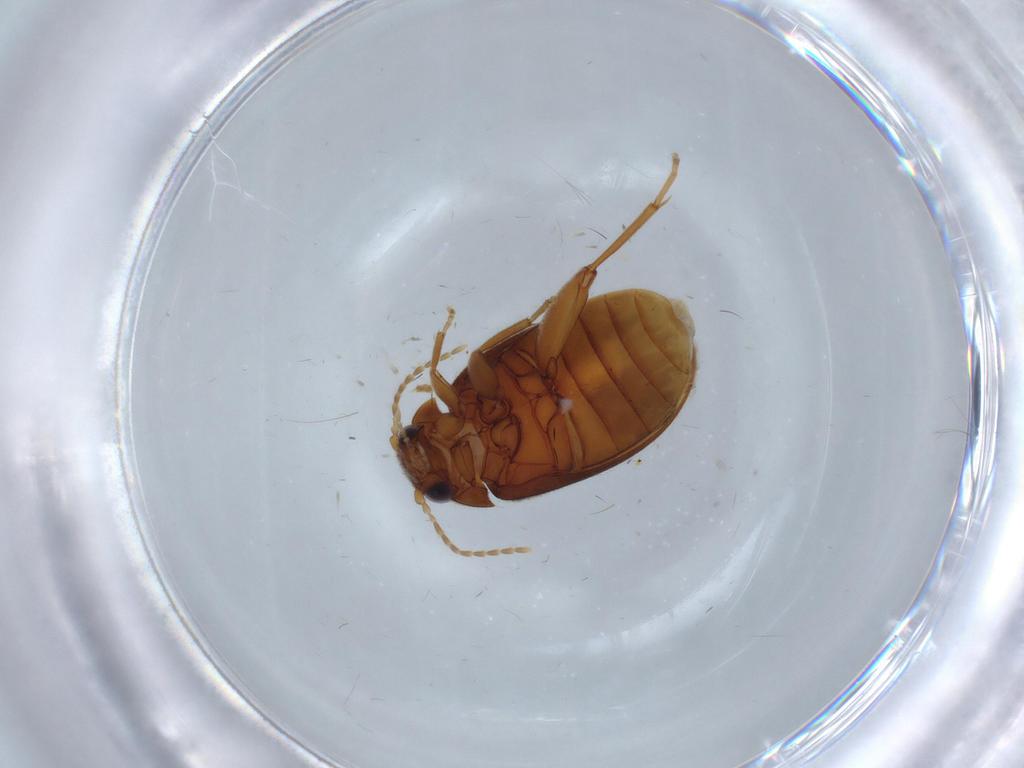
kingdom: Animalia
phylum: Arthropoda
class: Insecta
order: Coleoptera
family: Scirtidae
